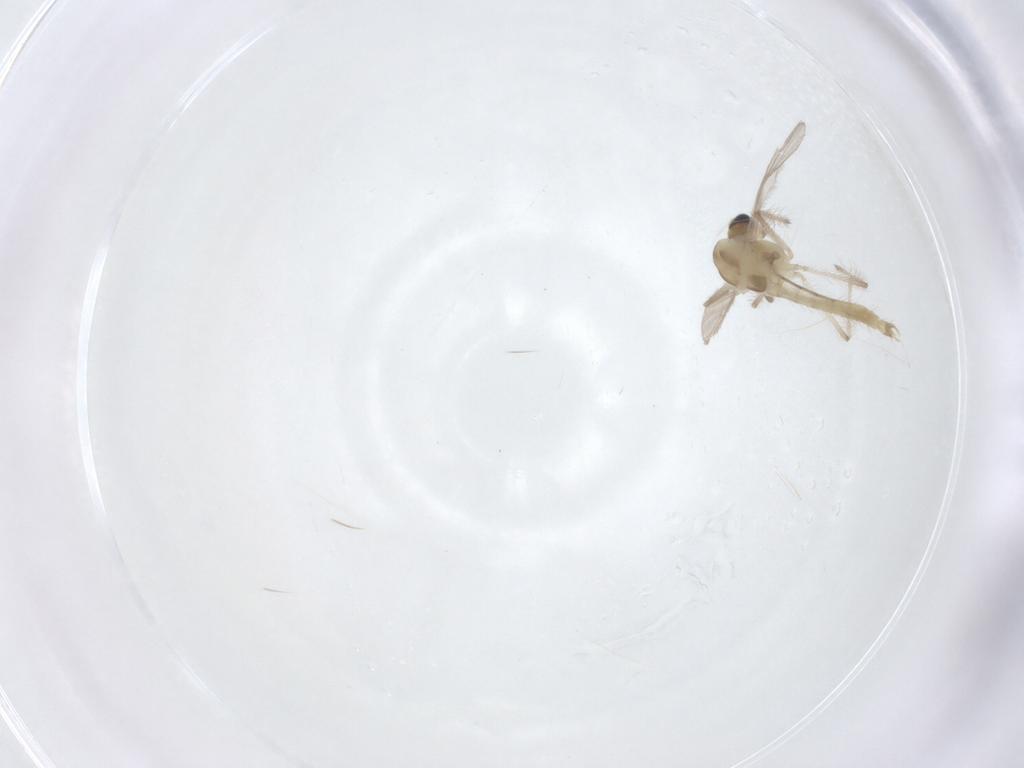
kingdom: Animalia
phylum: Arthropoda
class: Insecta
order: Diptera
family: Chironomidae
